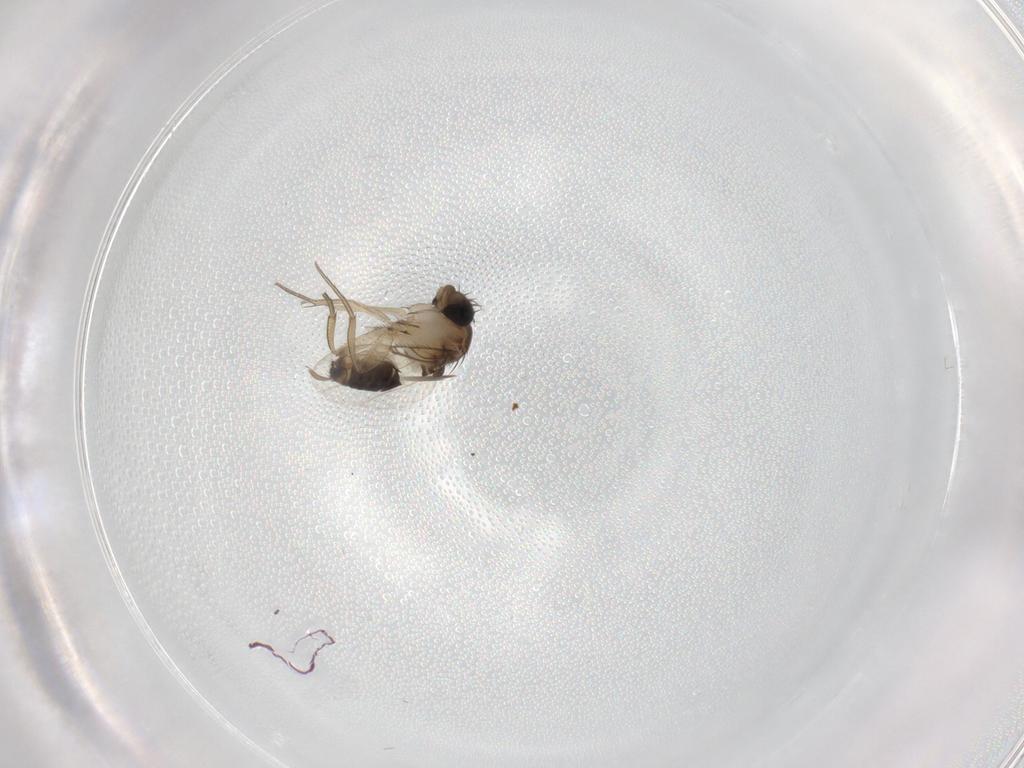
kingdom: Animalia
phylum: Arthropoda
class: Insecta
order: Diptera
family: Phoridae
